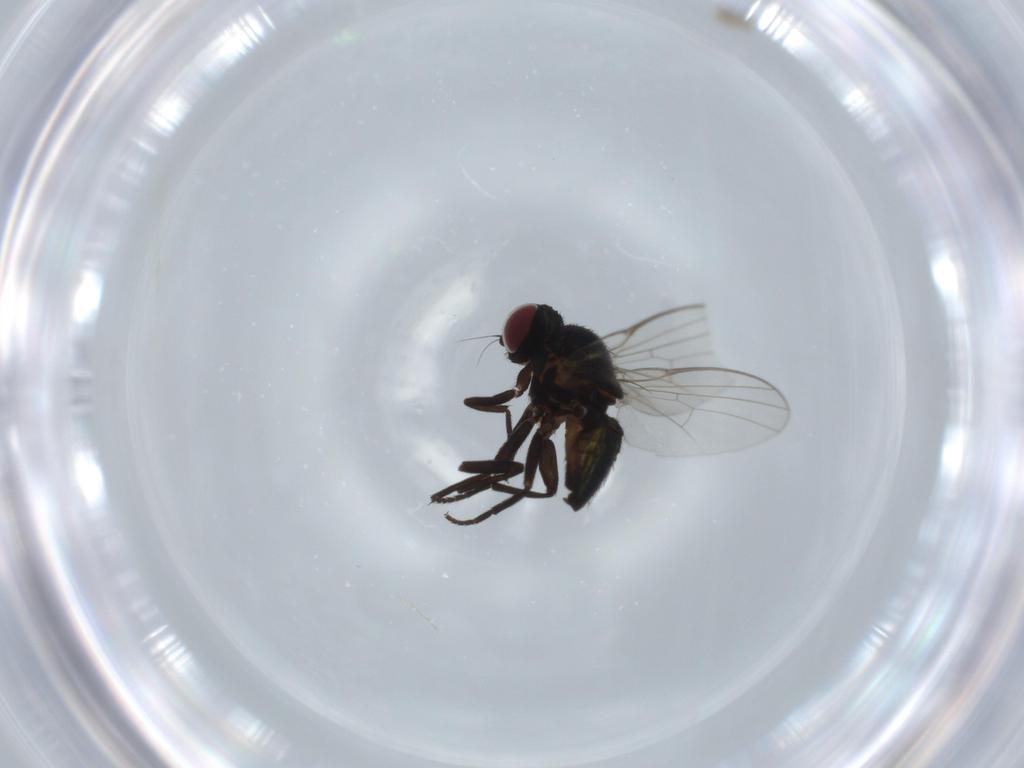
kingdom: Animalia
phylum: Arthropoda
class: Insecta
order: Diptera
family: Agromyzidae
